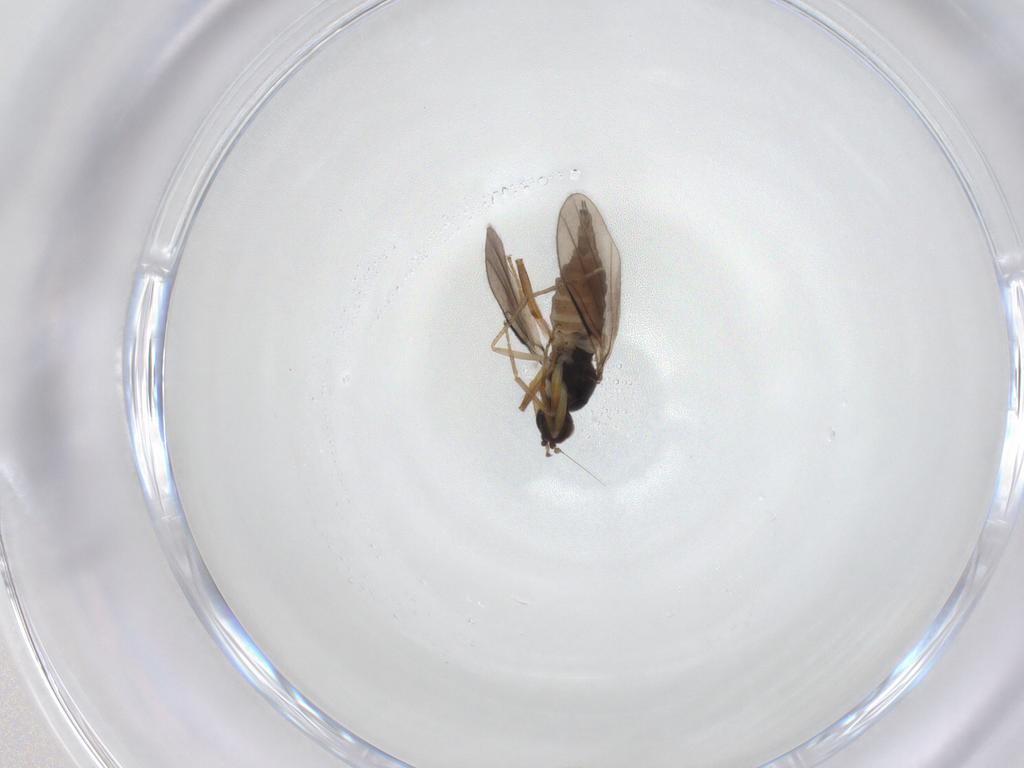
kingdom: Animalia
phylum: Arthropoda
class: Insecta
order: Diptera
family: Hybotidae
